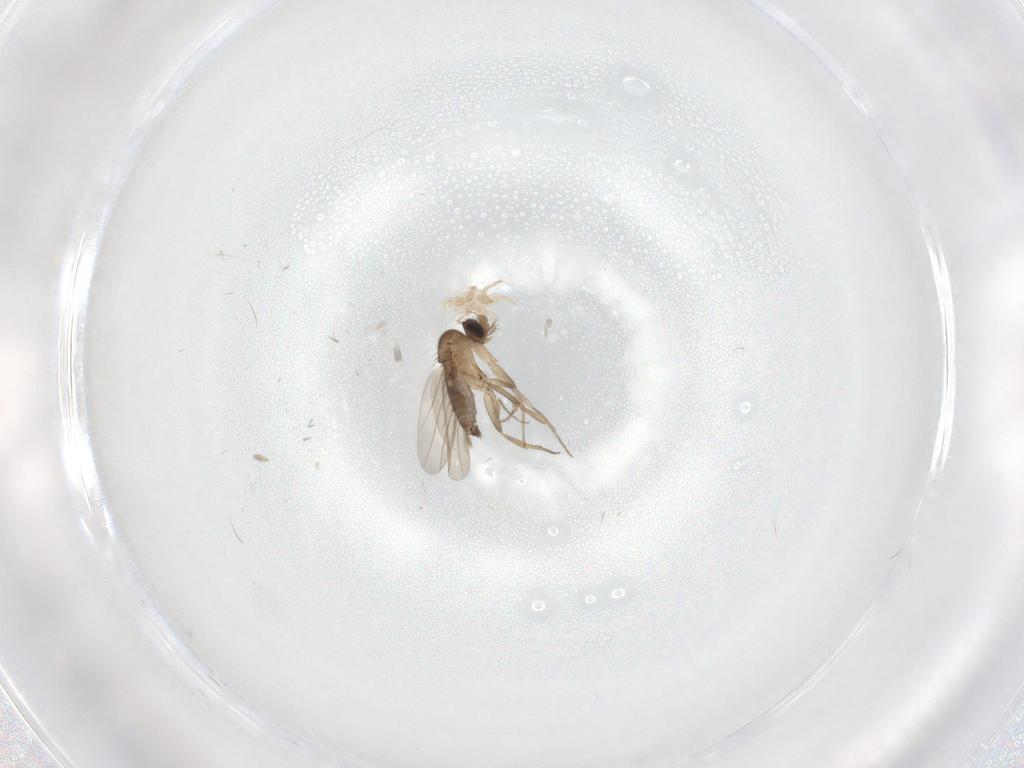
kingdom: Animalia
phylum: Arthropoda
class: Insecta
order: Diptera
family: Phoridae
